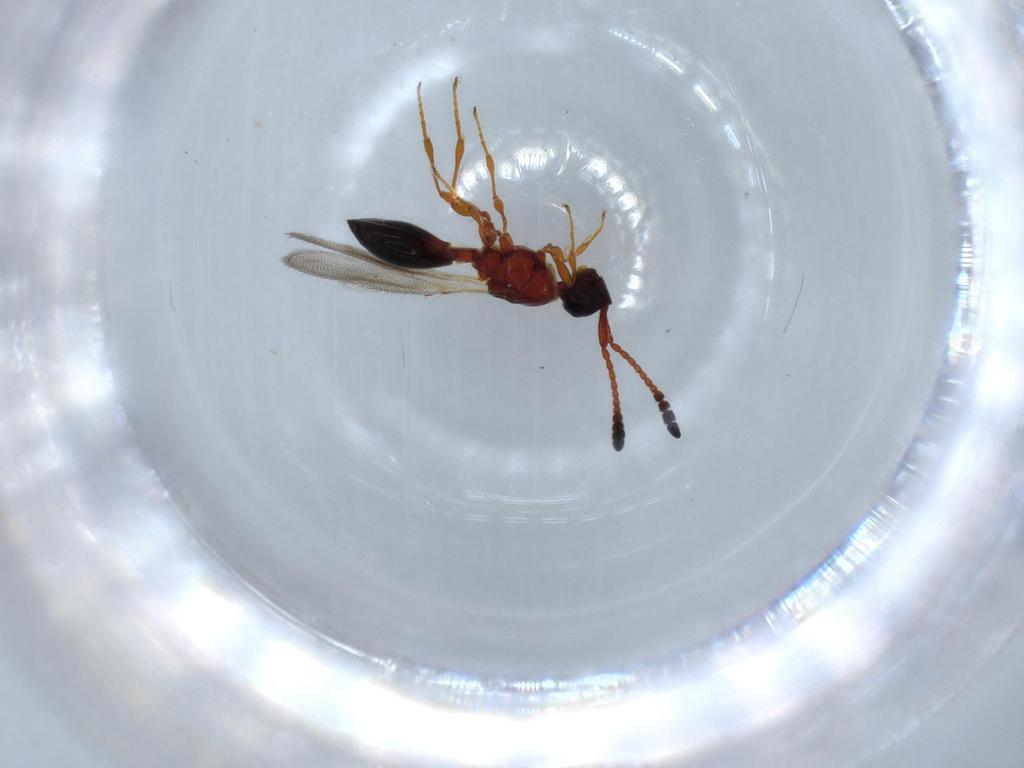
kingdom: Animalia
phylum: Arthropoda
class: Insecta
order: Hymenoptera
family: Diapriidae
